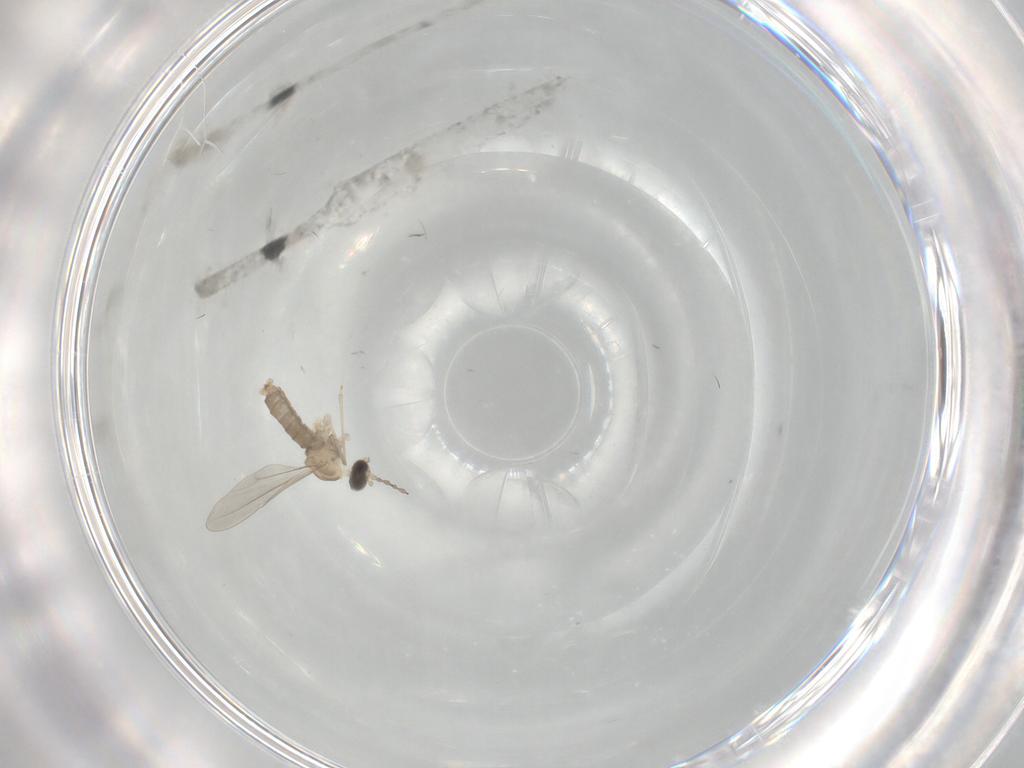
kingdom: Animalia
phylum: Arthropoda
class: Insecta
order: Diptera
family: Cecidomyiidae
